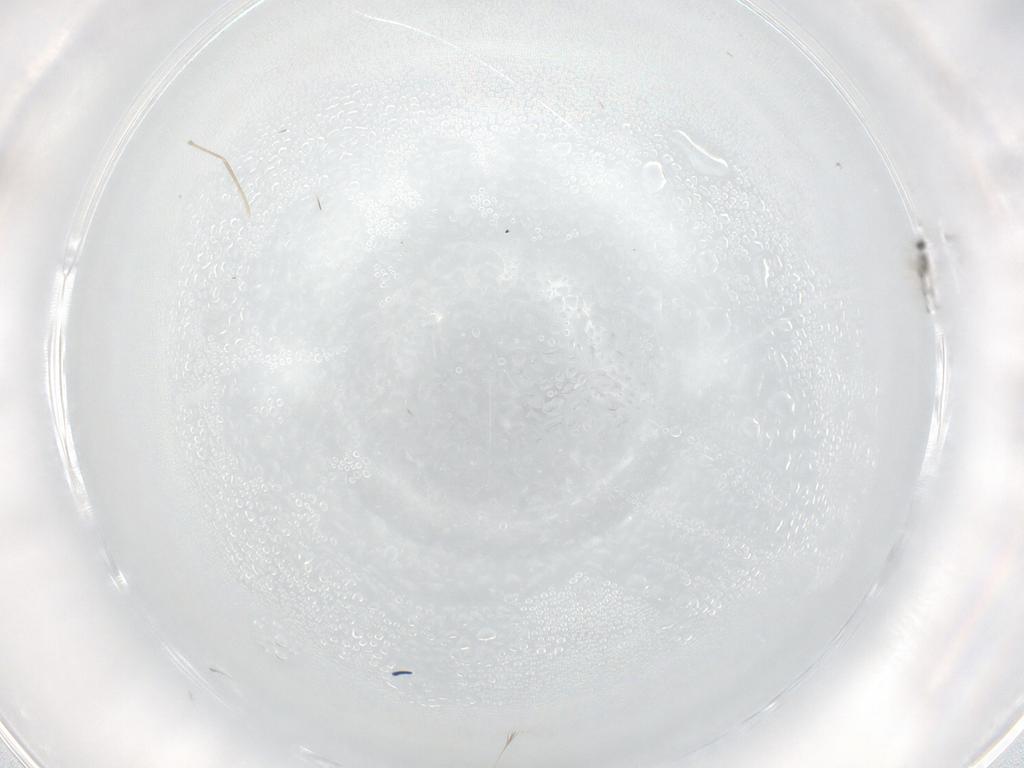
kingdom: Animalia
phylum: Arthropoda
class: Insecta
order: Diptera
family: Cecidomyiidae
